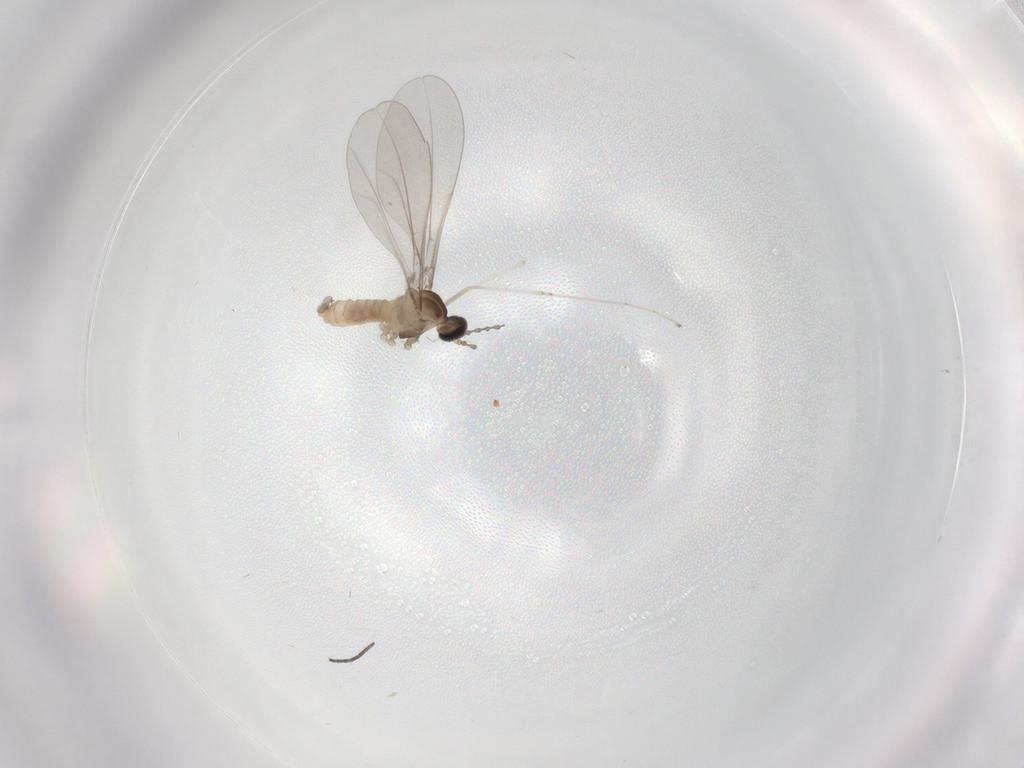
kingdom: Animalia
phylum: Arthropoda
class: Insecta
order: Diptera
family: Cecidomyiidae
